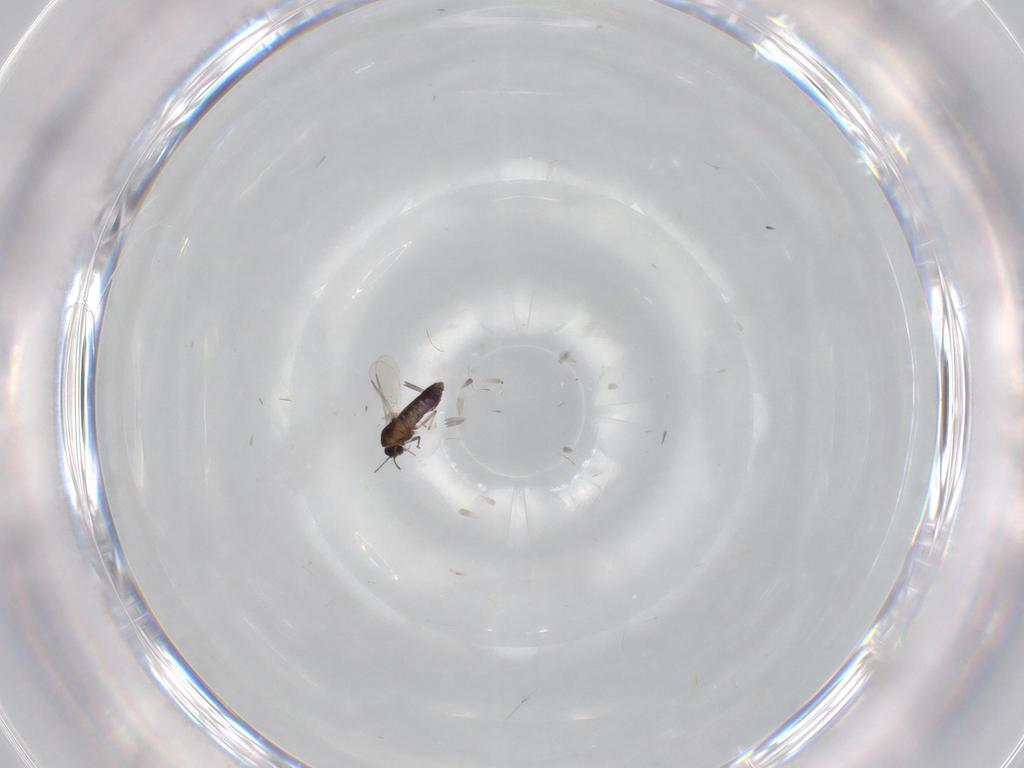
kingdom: Animalia
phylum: Arthropoda
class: Insecta
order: Diptera
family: Chironomidae
